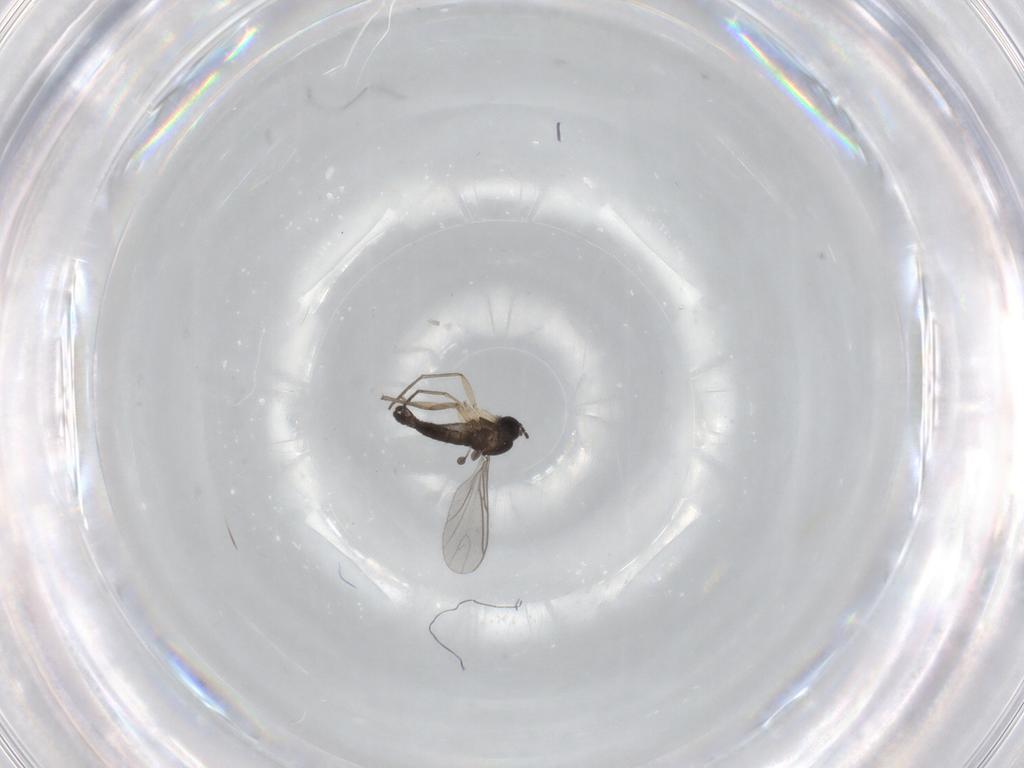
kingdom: Animalia
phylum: Arthropoda
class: Insecta
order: Diptera
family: Sciaridae
